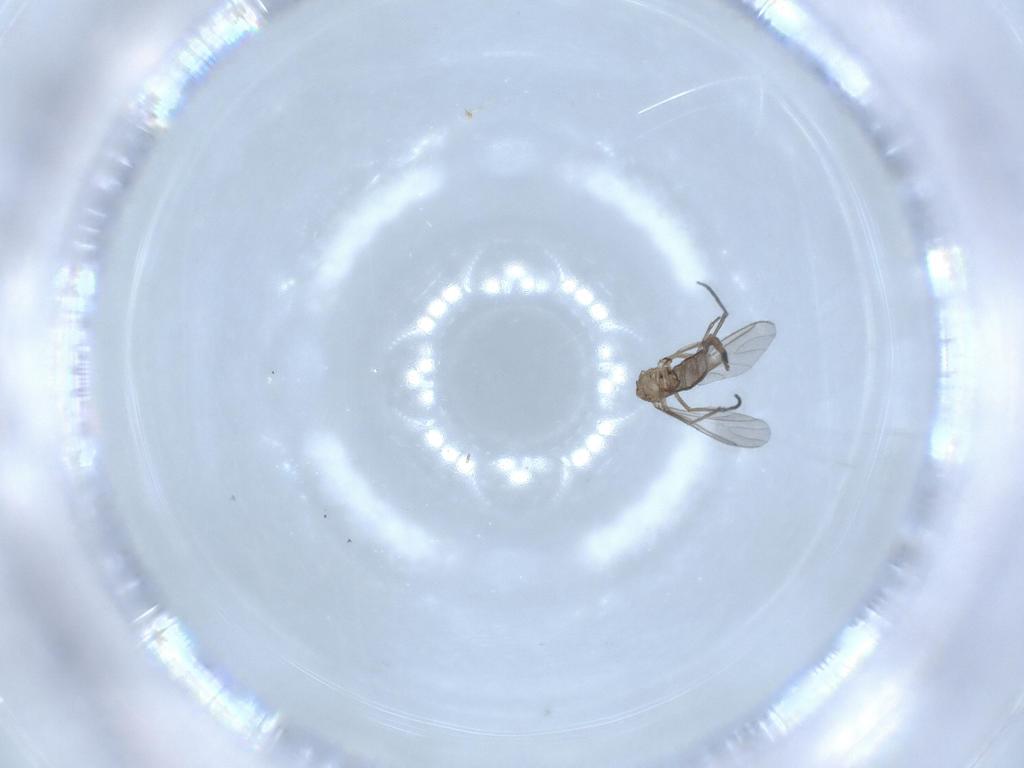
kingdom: Animalia
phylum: Arthropoda
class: Insecta
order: Diptera
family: Sciaridae
